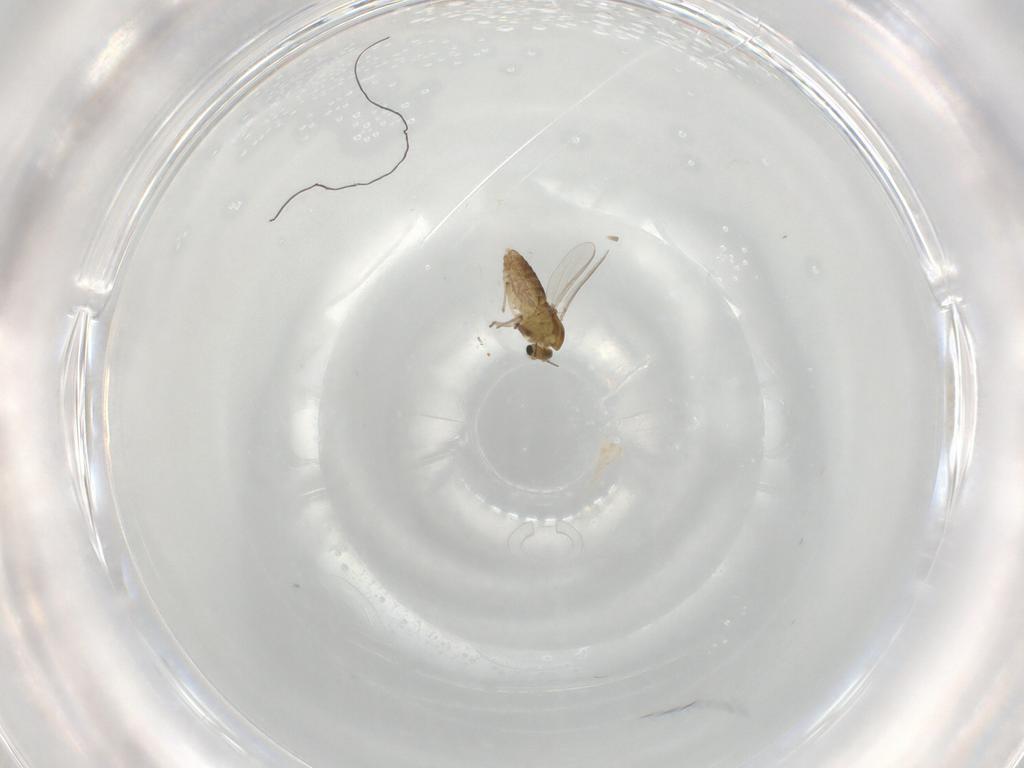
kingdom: Animalia
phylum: Arthropoda
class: Insecta
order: Diptera
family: Chironomidae
